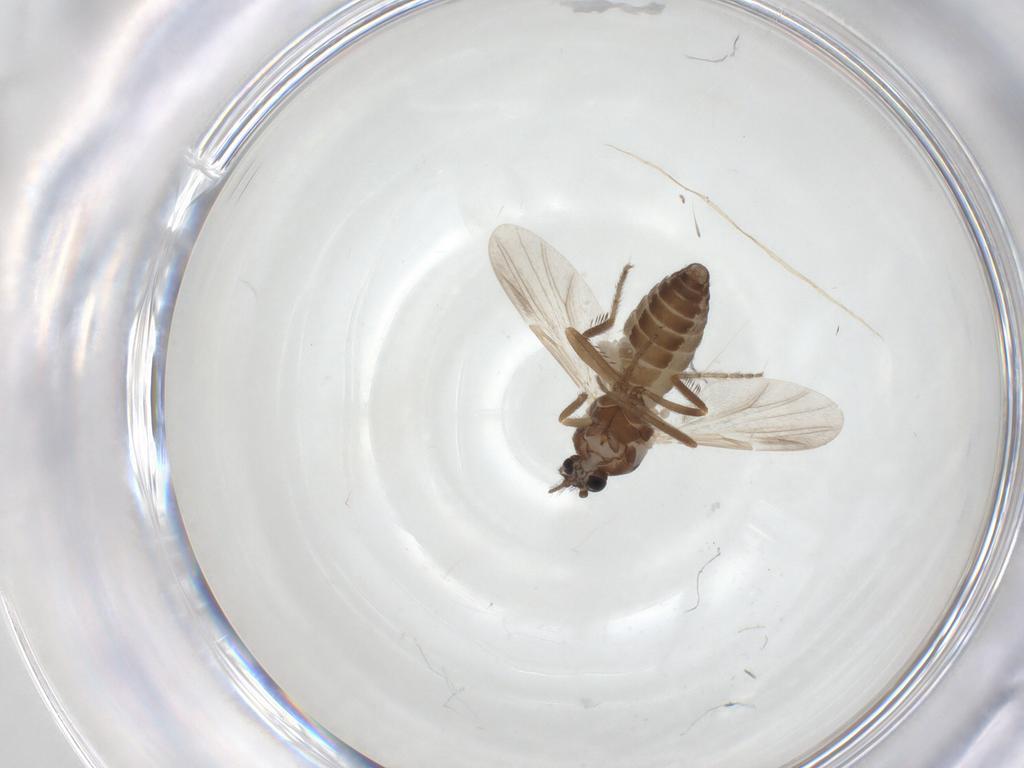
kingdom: Animalia
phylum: Arthropoda
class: Insecta
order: Diptera
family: Ceratopogonidae
